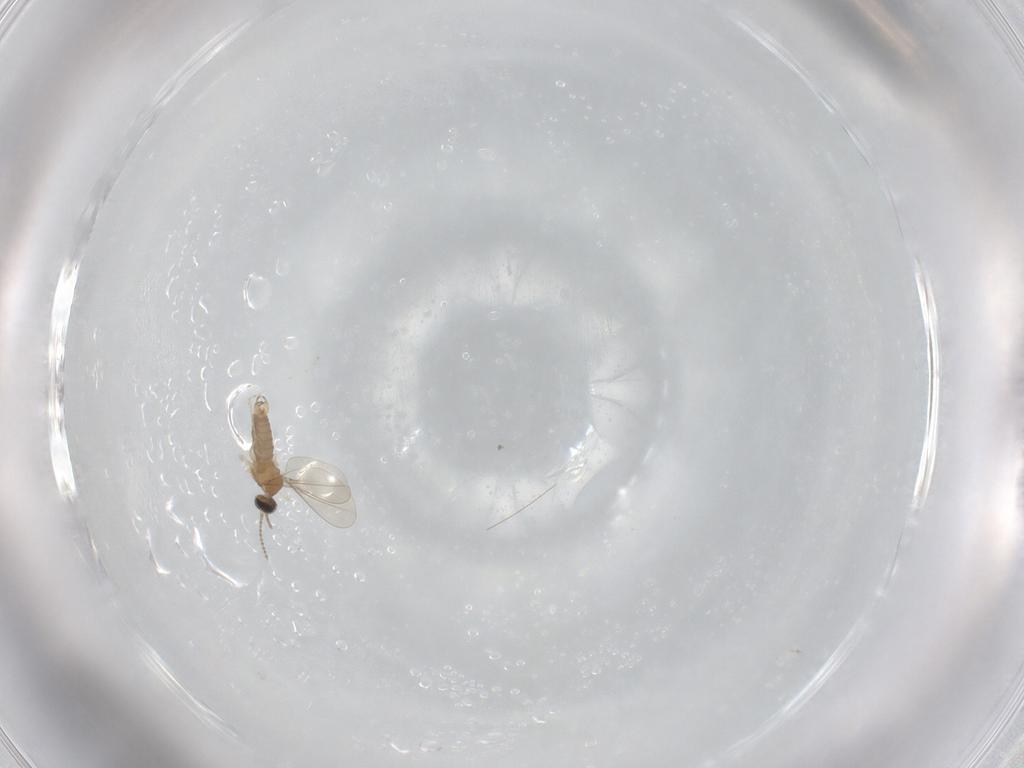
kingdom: Animalia
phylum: Arthropoda
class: Insecta
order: Diptera
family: Cecidomyiidae
